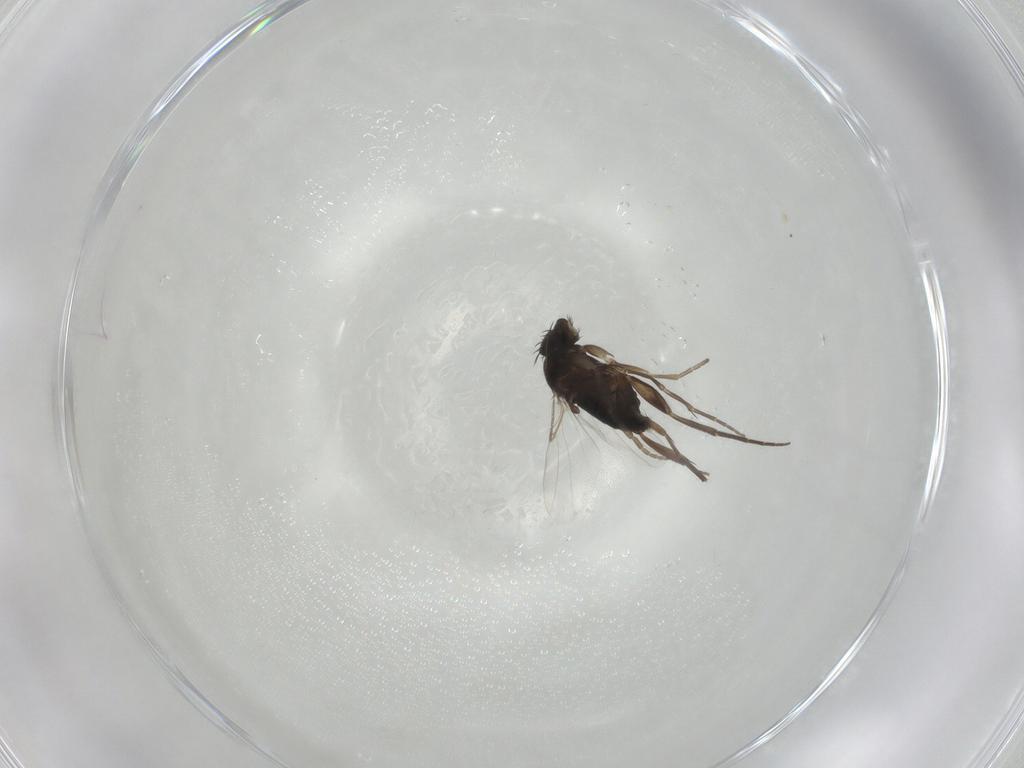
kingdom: Animalia
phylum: Arthropoda
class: Insecta
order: Diptera
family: Phoridae
